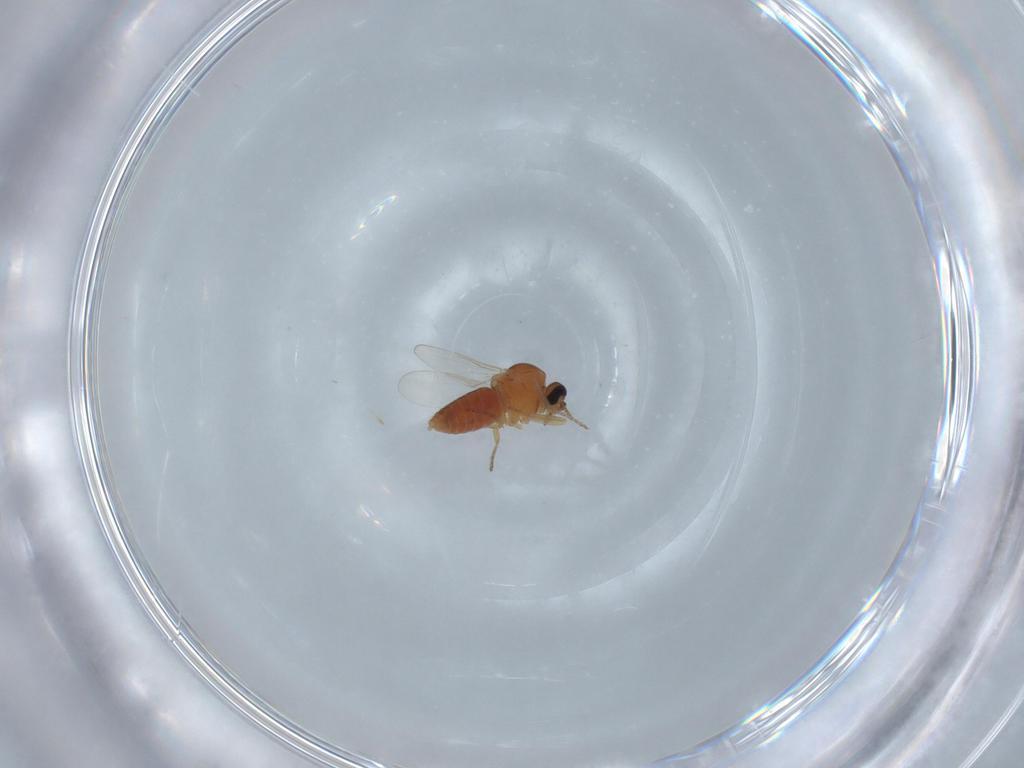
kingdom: Animalia
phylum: Arthropoda
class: Insecta
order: Diptera
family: Ceratopogonidae
